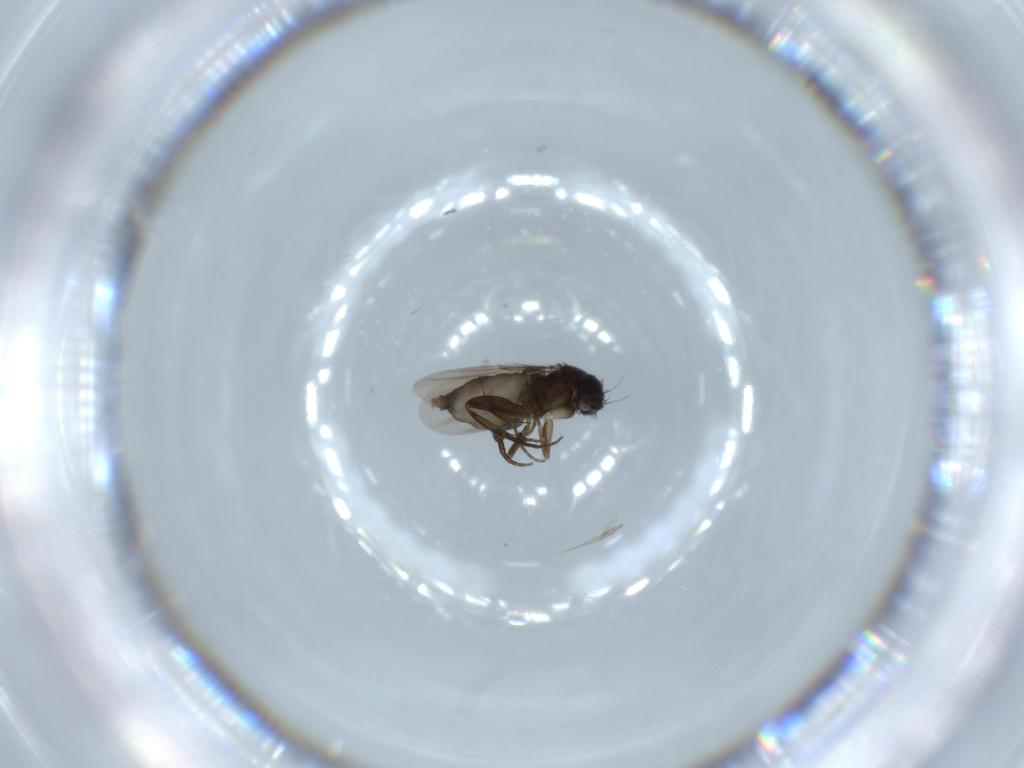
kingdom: Animalia
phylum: Arthropoda
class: Insecta
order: Diptera
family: Phoridae
